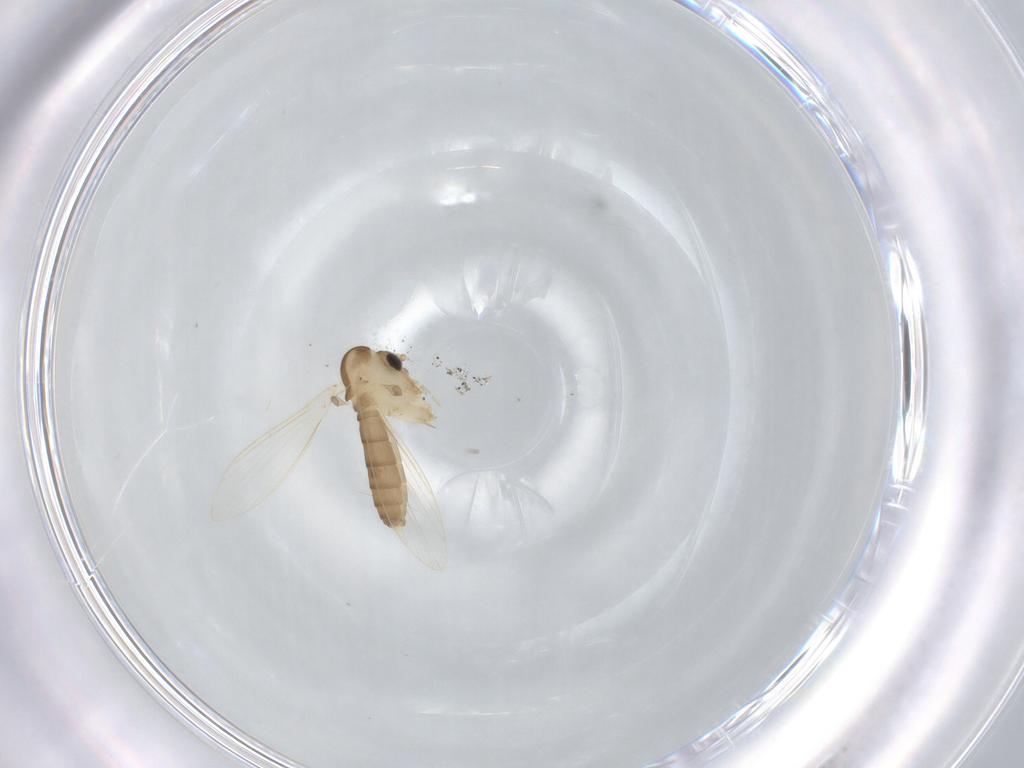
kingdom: Animalia
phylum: Arthropoda
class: Insecta
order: Diptera
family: Psychodidae
